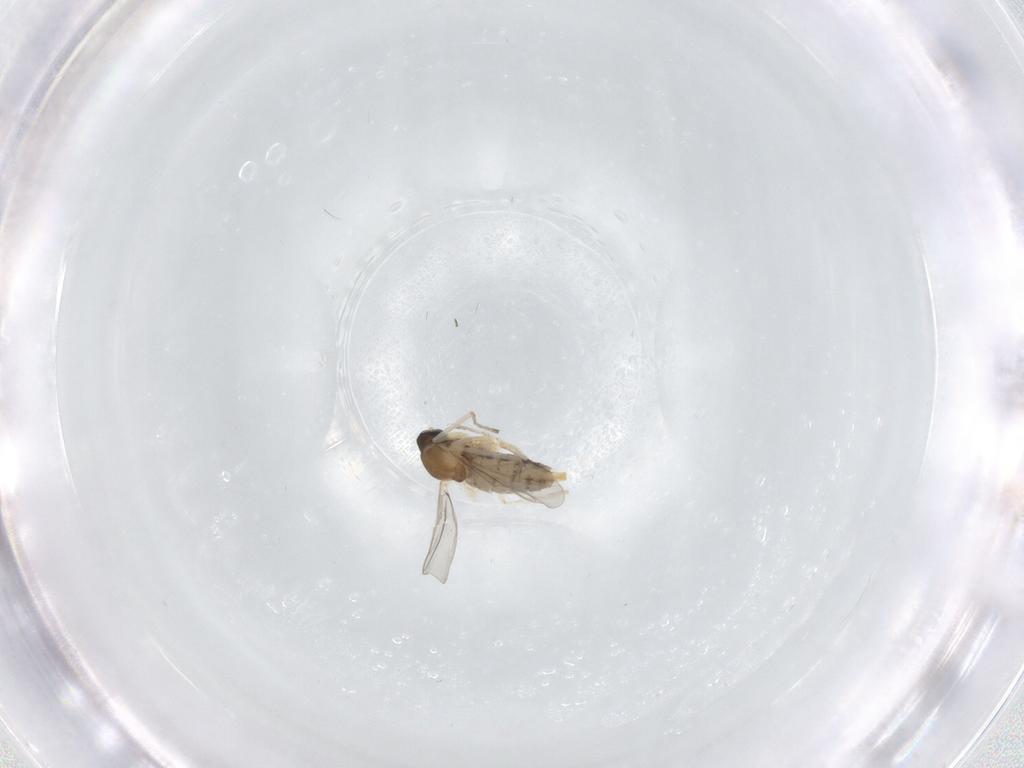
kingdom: Animalia
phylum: Arthropoda
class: Insecta
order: Diptera
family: Cecidomyiidae
